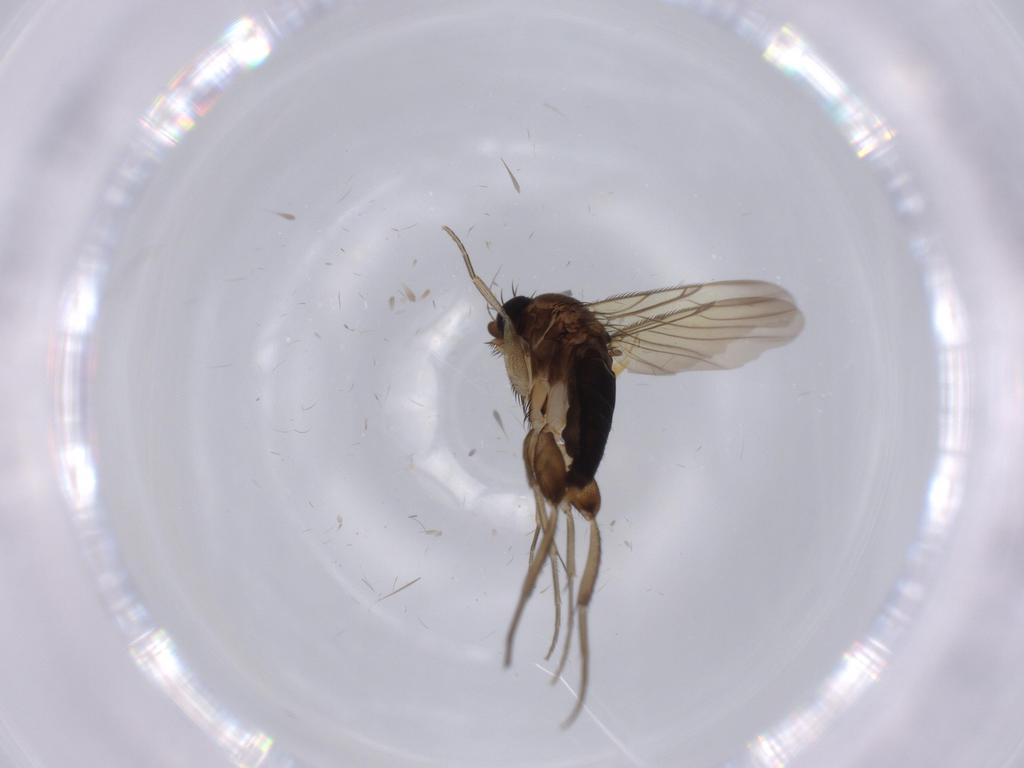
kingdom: Animalia
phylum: Arthropoda
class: Insecta
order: Diptera
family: Phoridae
